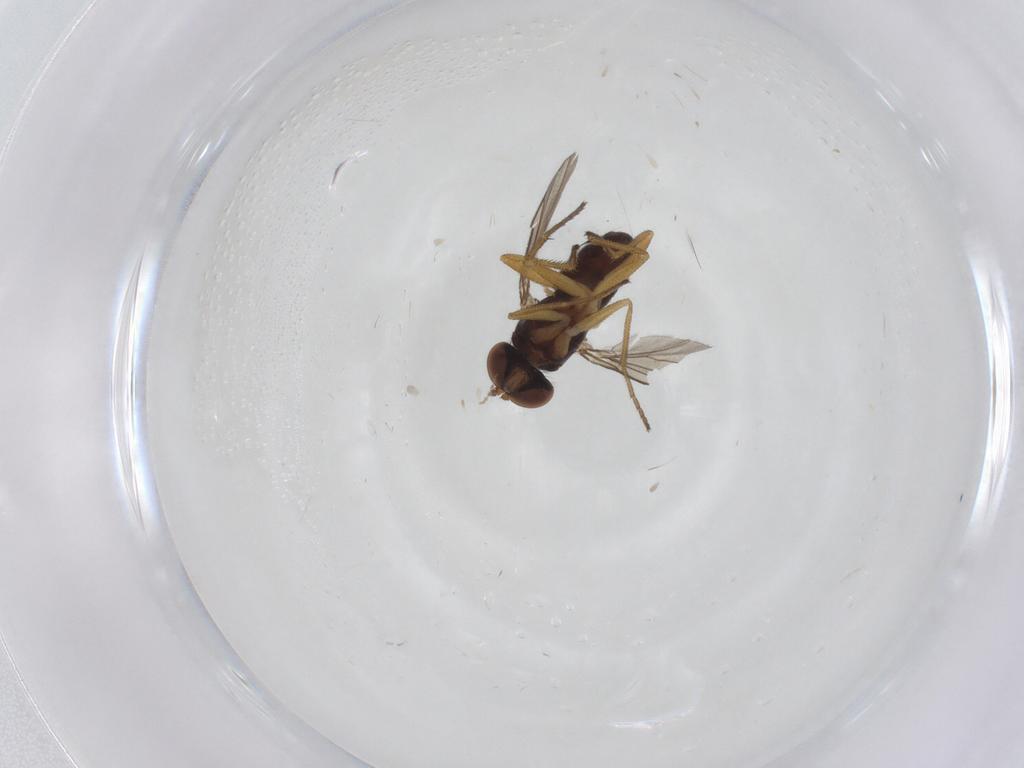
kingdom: Animalia
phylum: Arthropoda
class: Insecta
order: Diptera
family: Dolichopodidae
